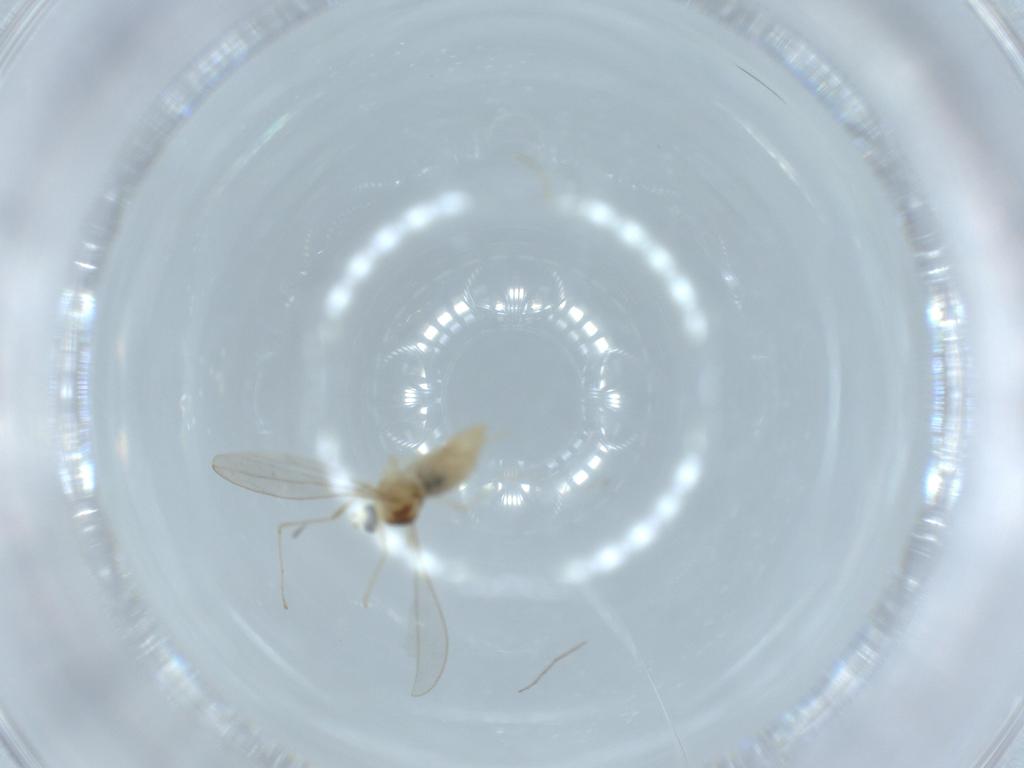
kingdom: Animalia
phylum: Arthropoda
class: Insecta
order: Diptera
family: Cecidomyiidae
